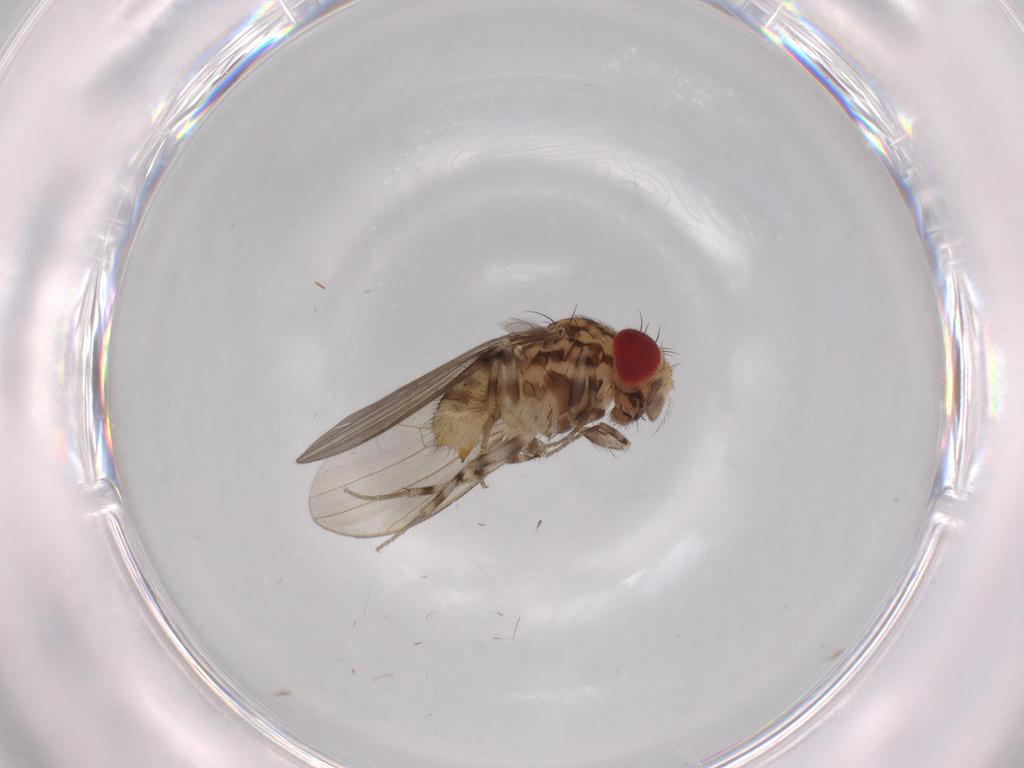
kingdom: Animalia
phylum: Arthropoda
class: Insecta
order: Diptera
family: Drosophilidae
